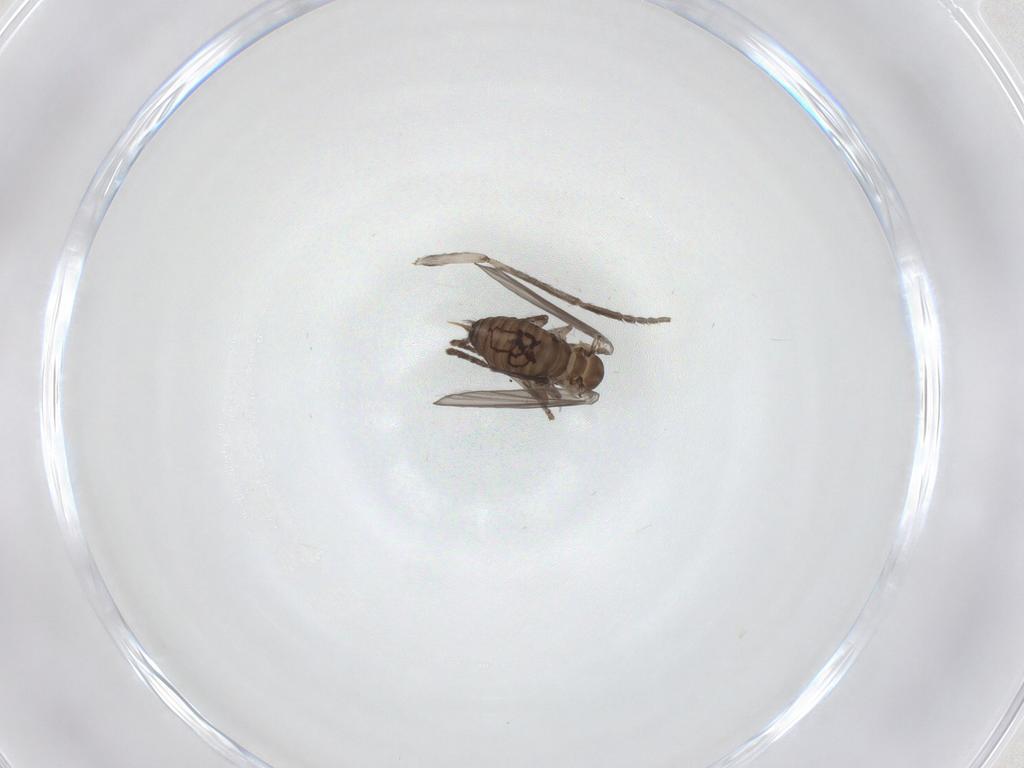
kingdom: Animalia
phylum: Arthropoda
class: Insecta
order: Diptera
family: Psychodidae
